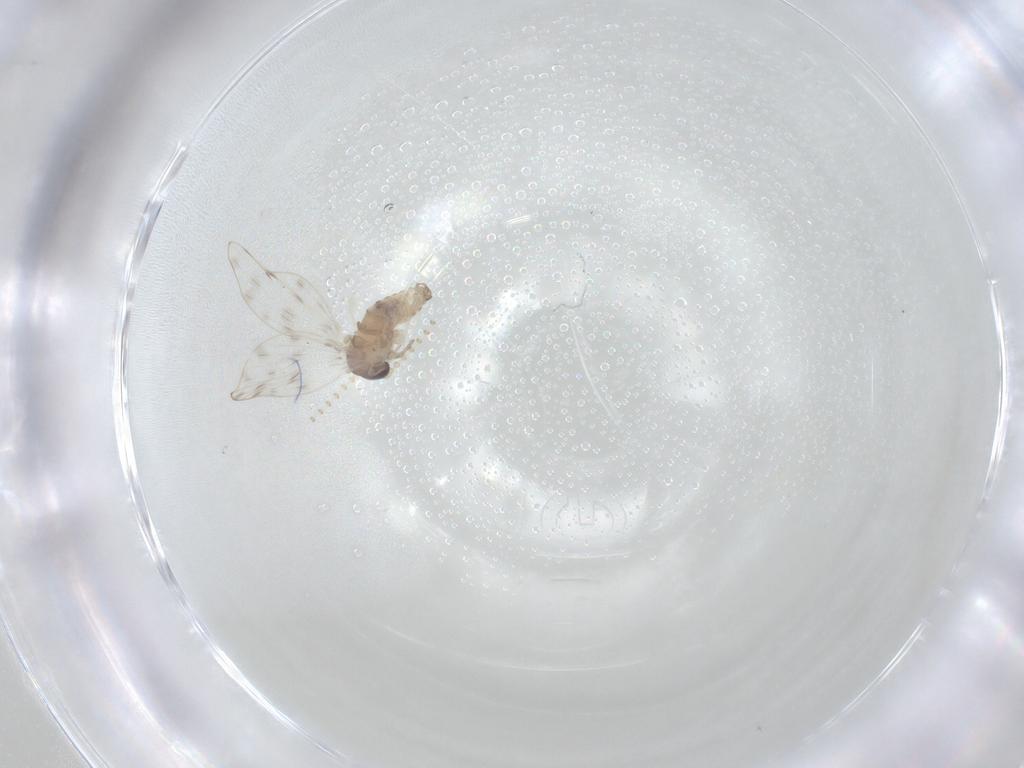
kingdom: Animalia
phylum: Arthropoda
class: Insecta
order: Diptera
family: Psychodidae
